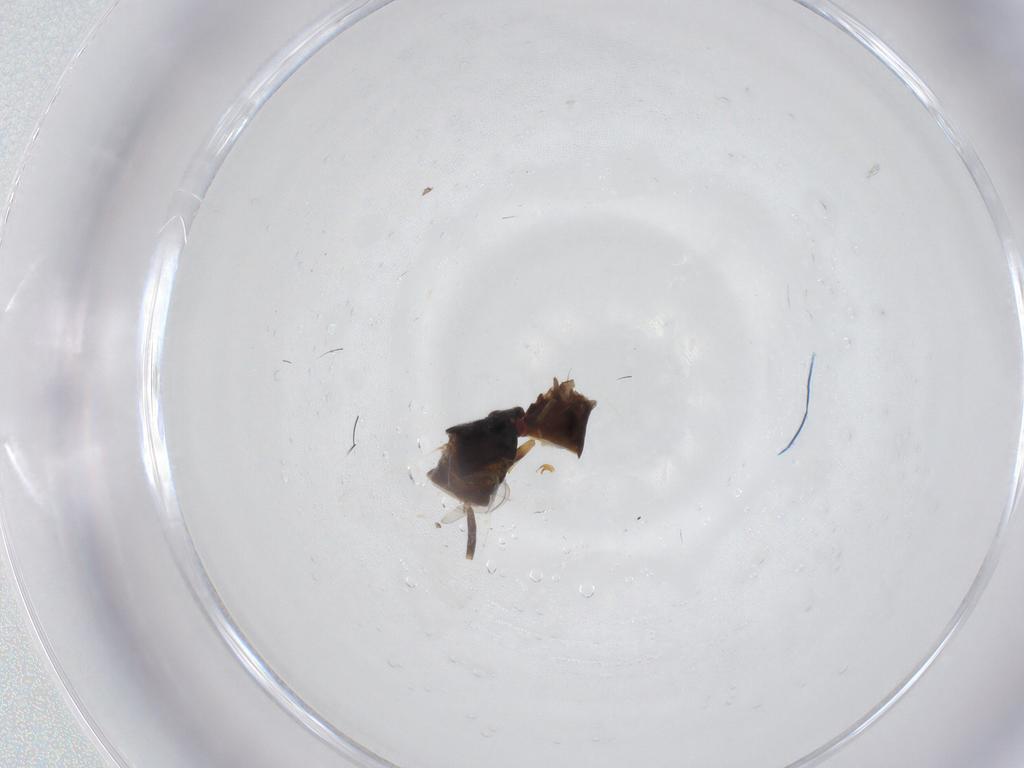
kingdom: Animalia
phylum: Arthropoda
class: Insecta
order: Hemiptera
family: Anthocoridae
